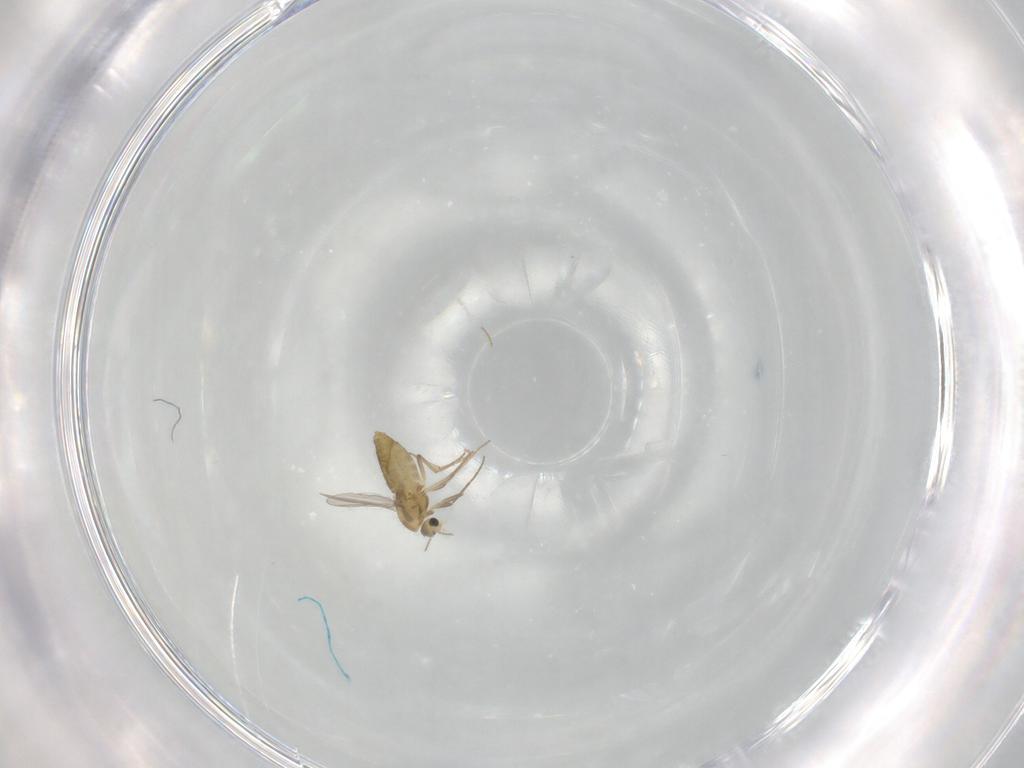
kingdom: Animalia
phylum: Arthropoda
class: Insecta
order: Diptera
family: Chironomidae
